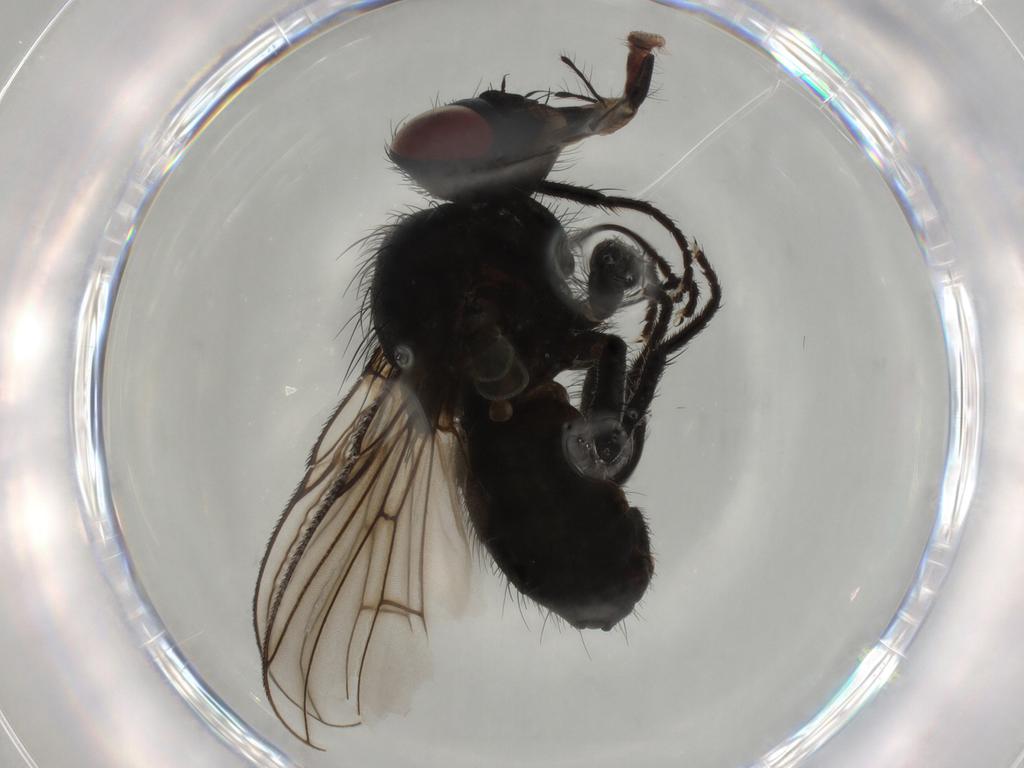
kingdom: Animalia
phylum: Arthropoda
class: Insecta
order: Diptera
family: Muscidae
